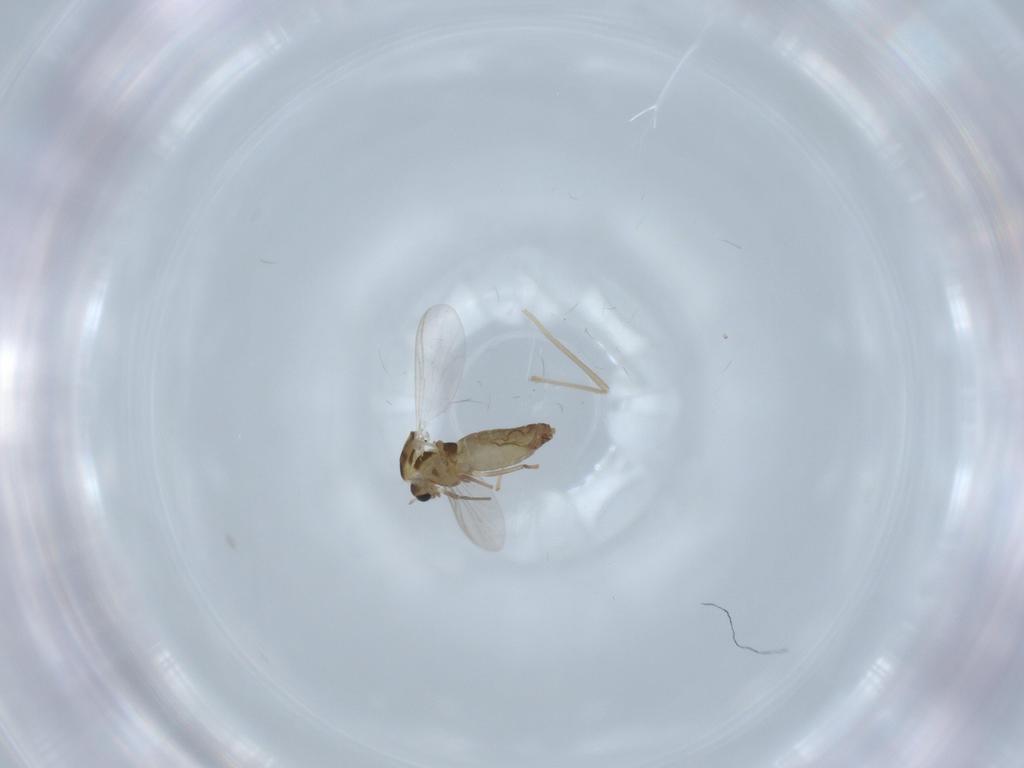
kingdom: Animalia
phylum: Arthropoda
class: Insecta
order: Diptera
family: Chironomidae
